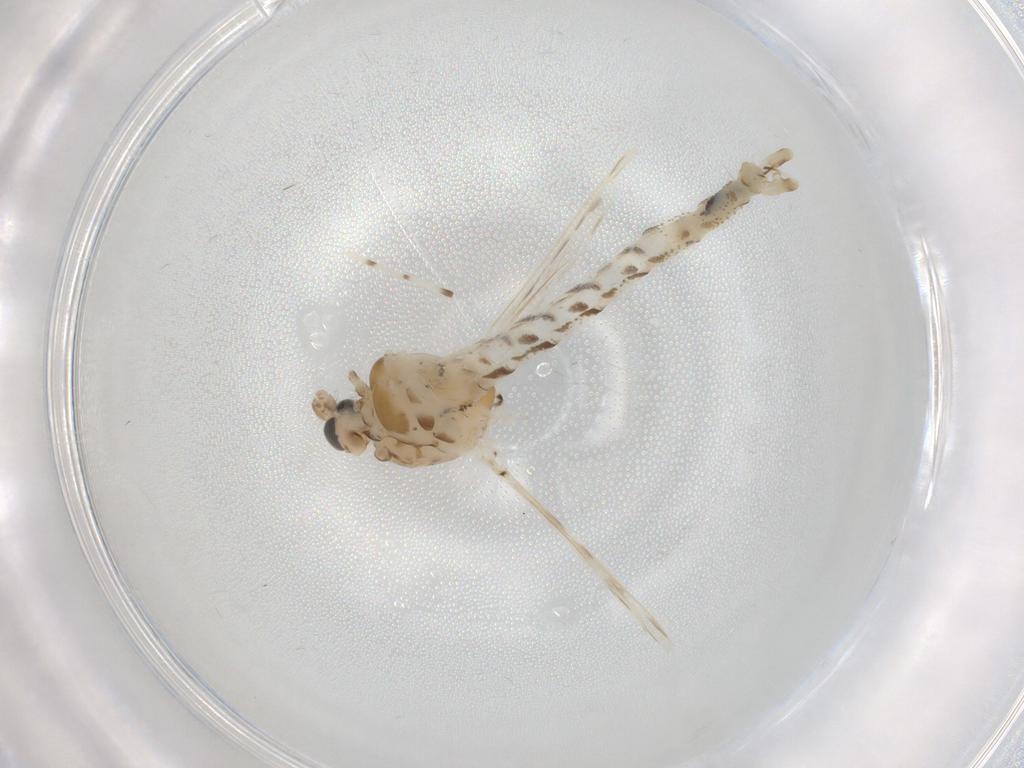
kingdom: Animalia
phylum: Arthropoda
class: Insecta
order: Diptera
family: Chaoboridae
